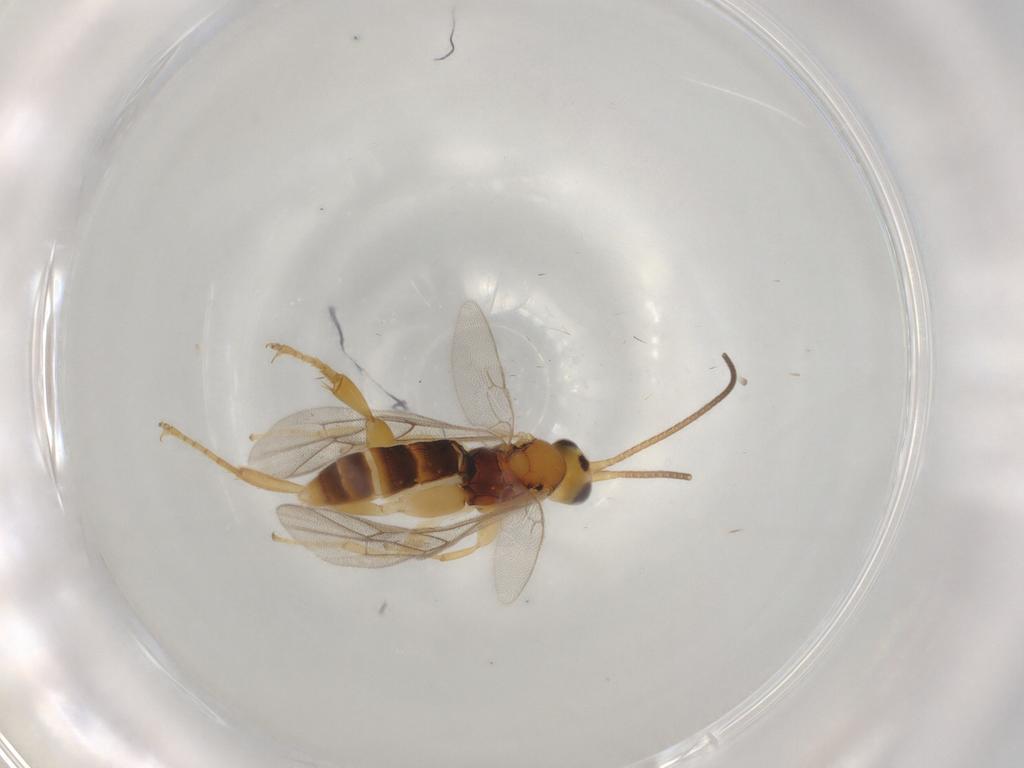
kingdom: Animalia
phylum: Arthropoda
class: Insecta
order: Hymenoptera
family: Ichneumonidae
